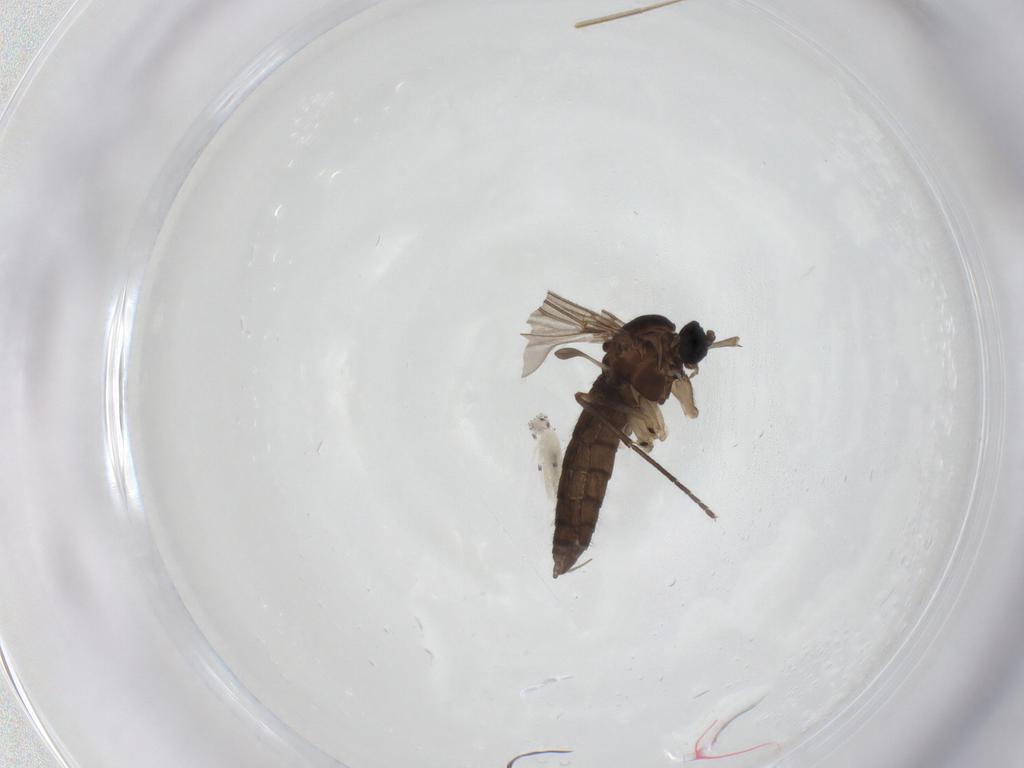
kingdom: Animalia
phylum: Arthropoda
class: Insecta
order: Diptera
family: Sciaridae
